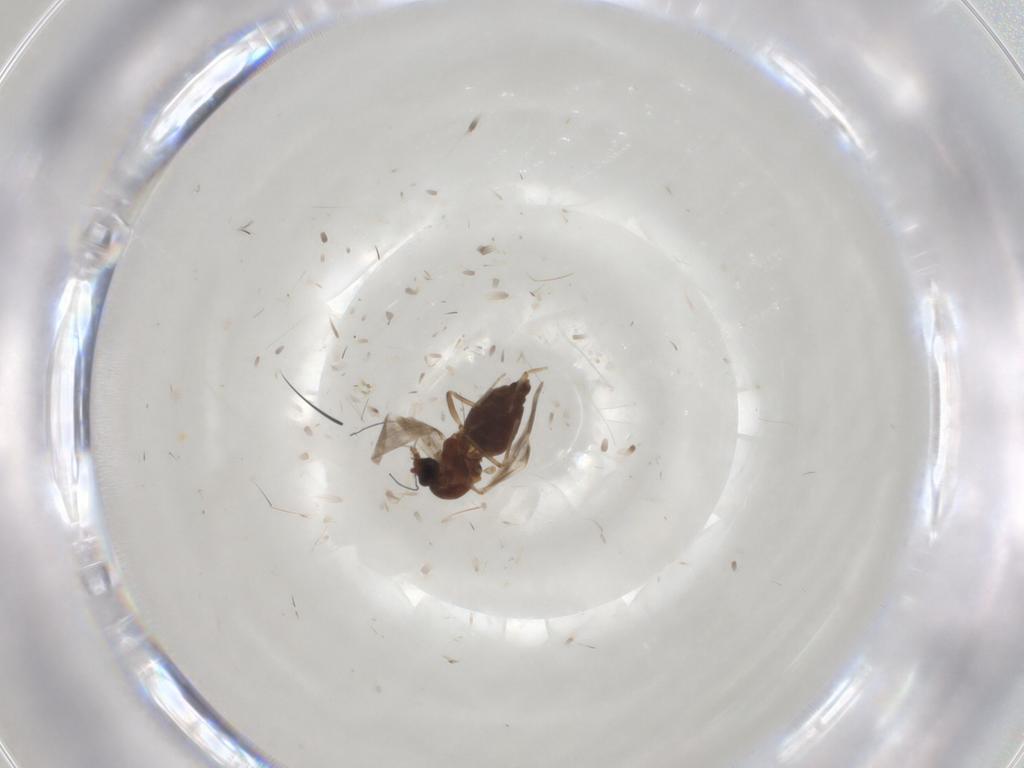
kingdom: Animalia
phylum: Arthropoda
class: Insecta
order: Diptera
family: Ceratopogonidae
